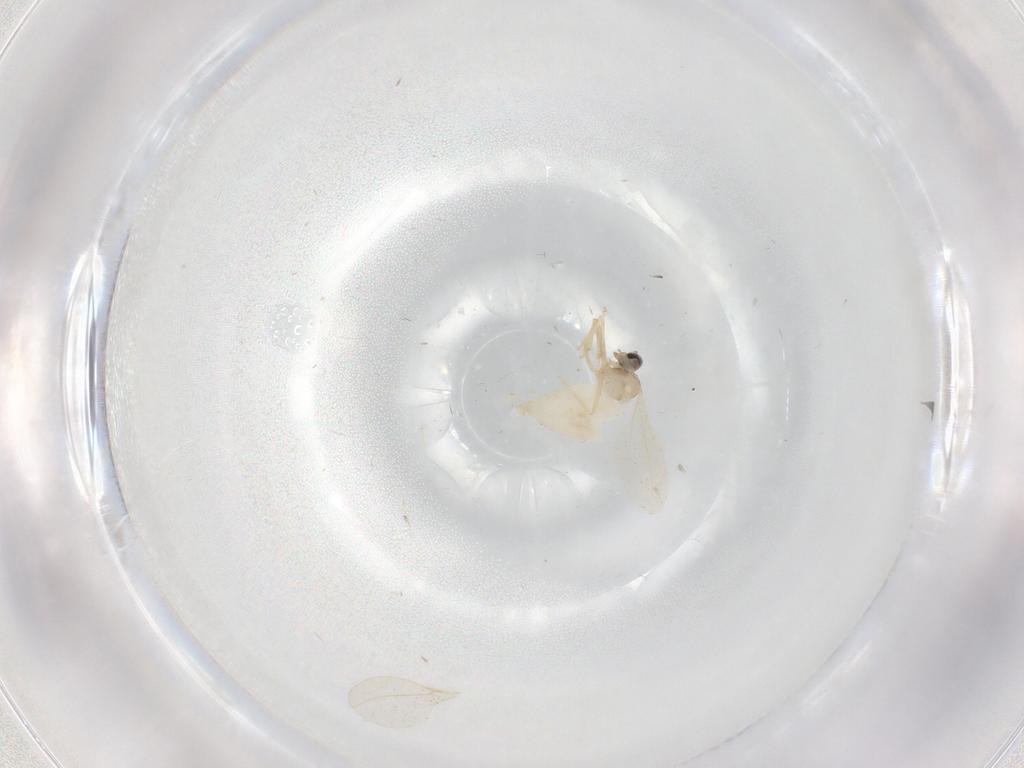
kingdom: Animalia
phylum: Arthropoda
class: Insecta
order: Diptera
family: Cecidomyiidae
